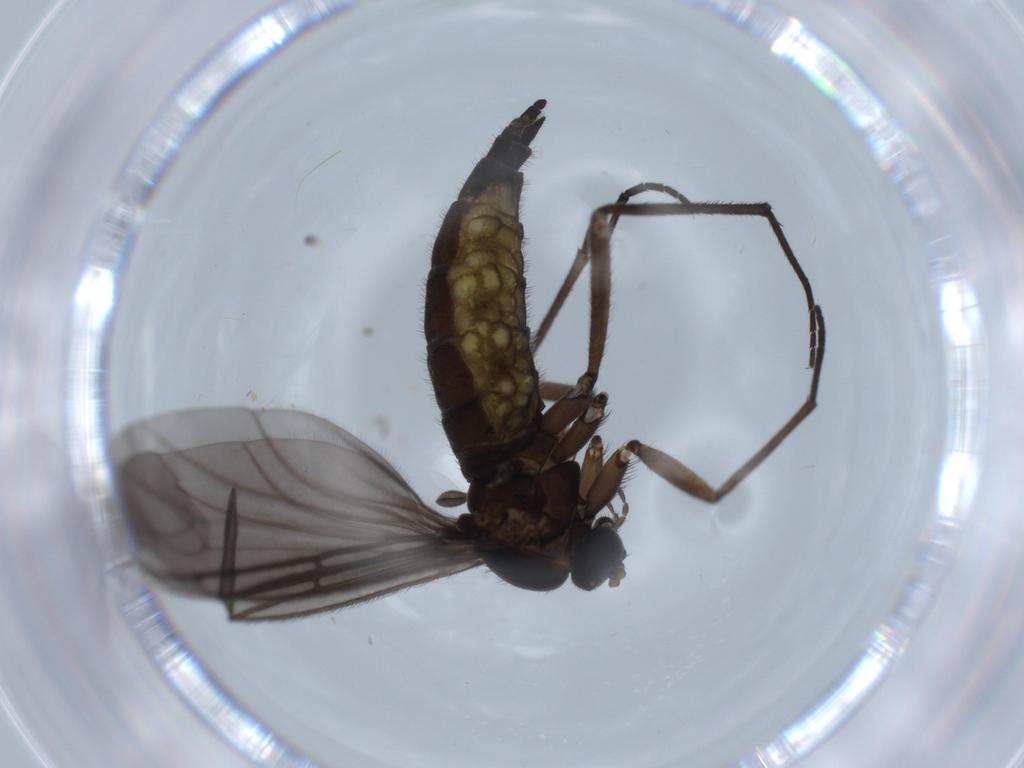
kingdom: Animalia
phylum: Arthropoda
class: Insecta
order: Diptera
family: Sciaridae
